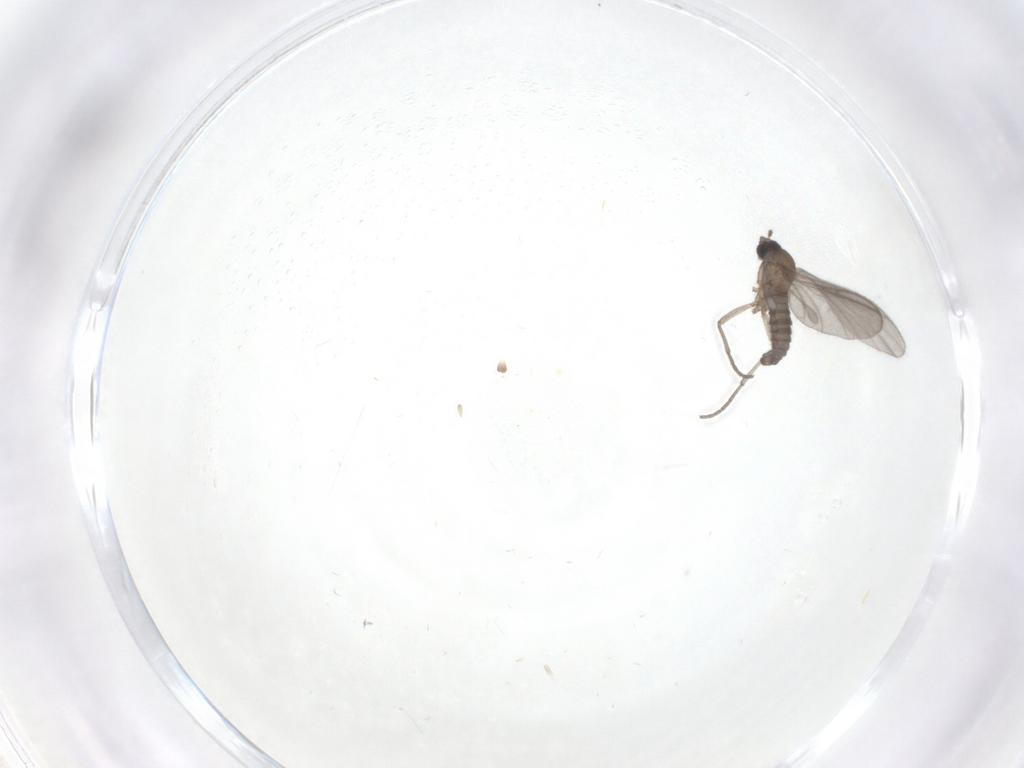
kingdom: Animalia
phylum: Arthropoda
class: Insecta
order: Diptera
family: Sciaridae
